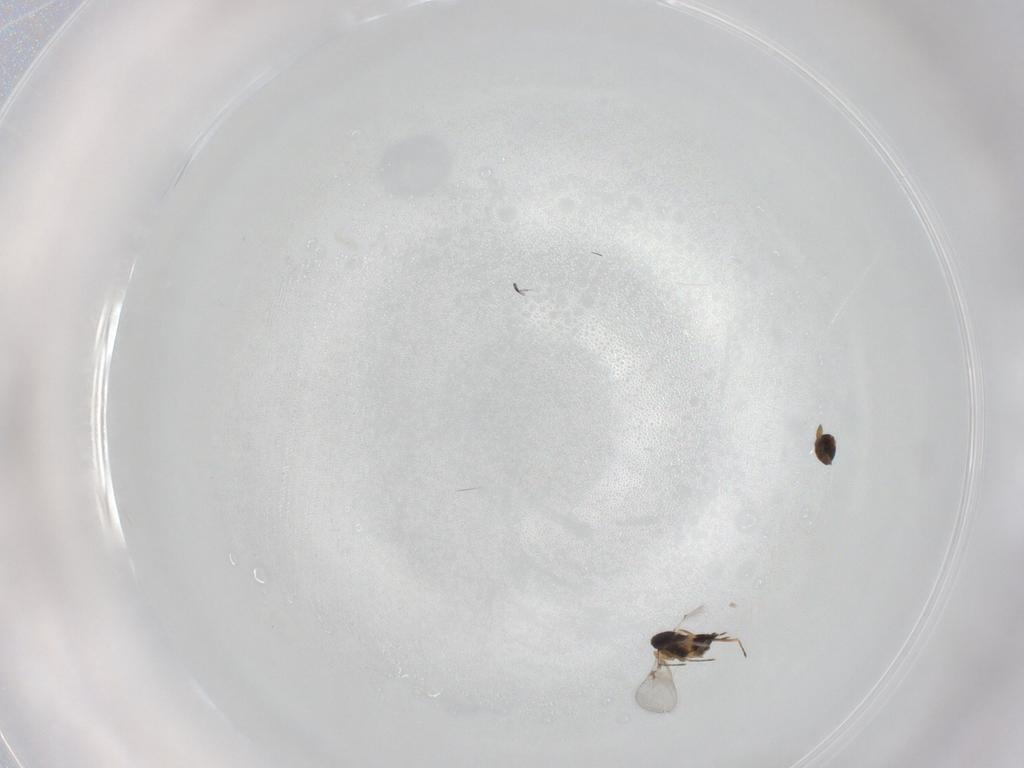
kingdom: Animalia
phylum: Arthropoda
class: Insecta
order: Hymenoptera
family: Eulophidae
